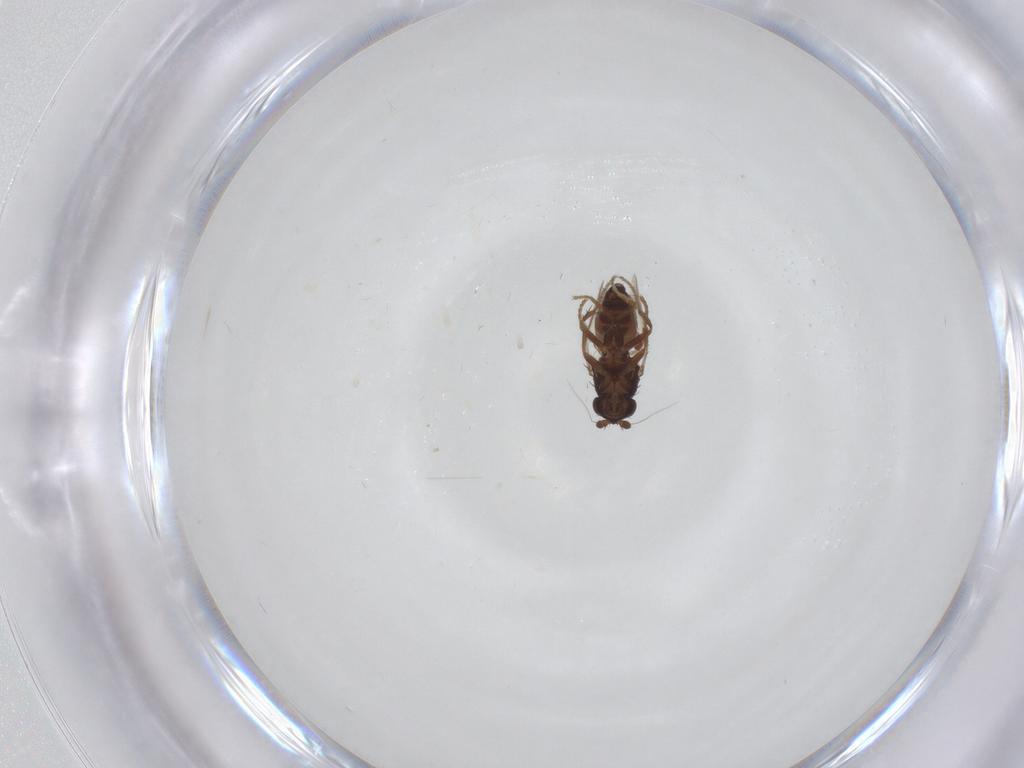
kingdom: Animalia
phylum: Arthropoda
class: Insecta
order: Diptera
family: Sphaeroceridae
